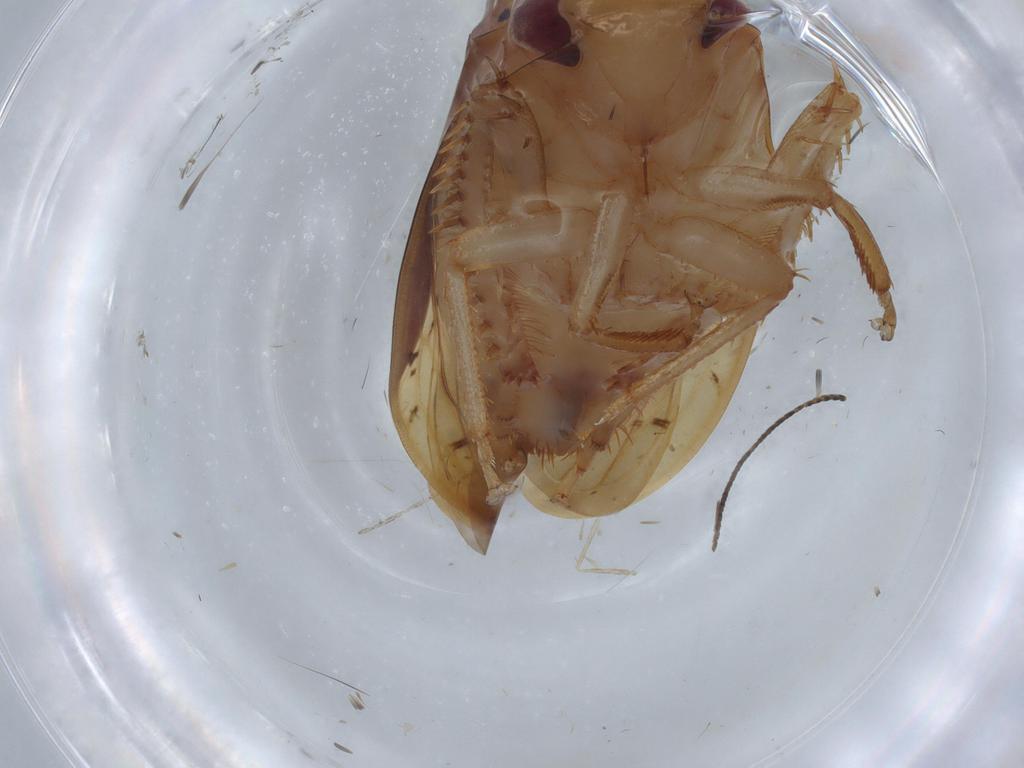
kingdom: Animalia
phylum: Arthropoda
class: Insecta
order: Hemiptera
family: Cicadellidae
